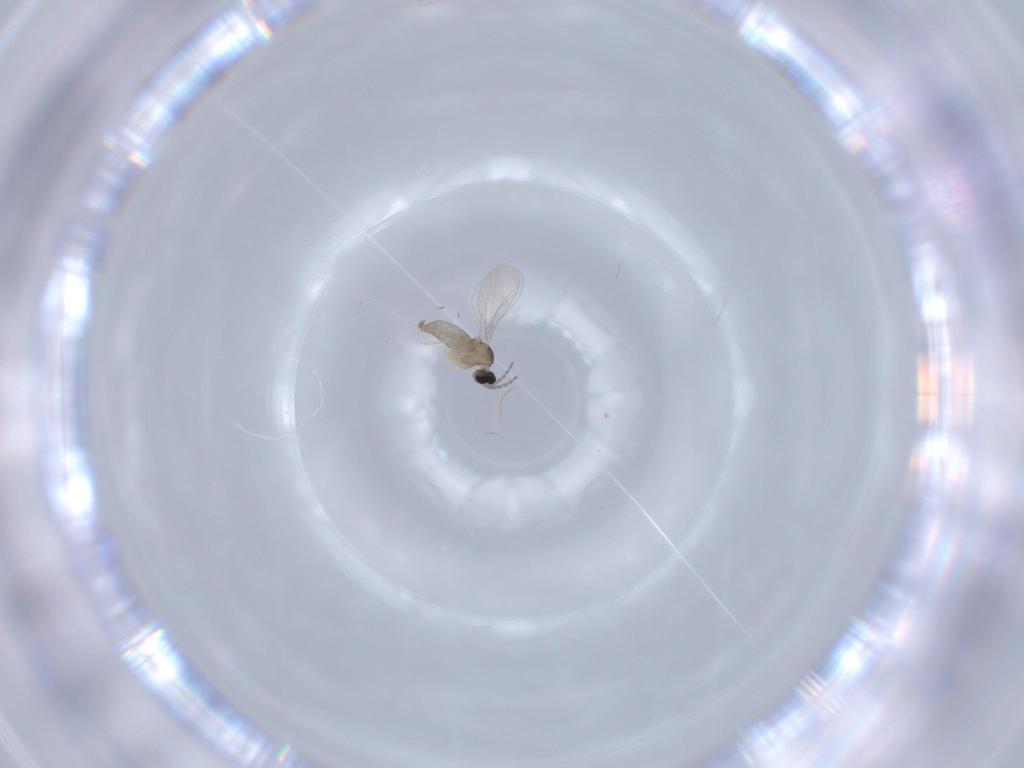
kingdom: Animalia
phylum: Arthropoda
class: Insecta
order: Diptera
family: Cecidomyiidae
